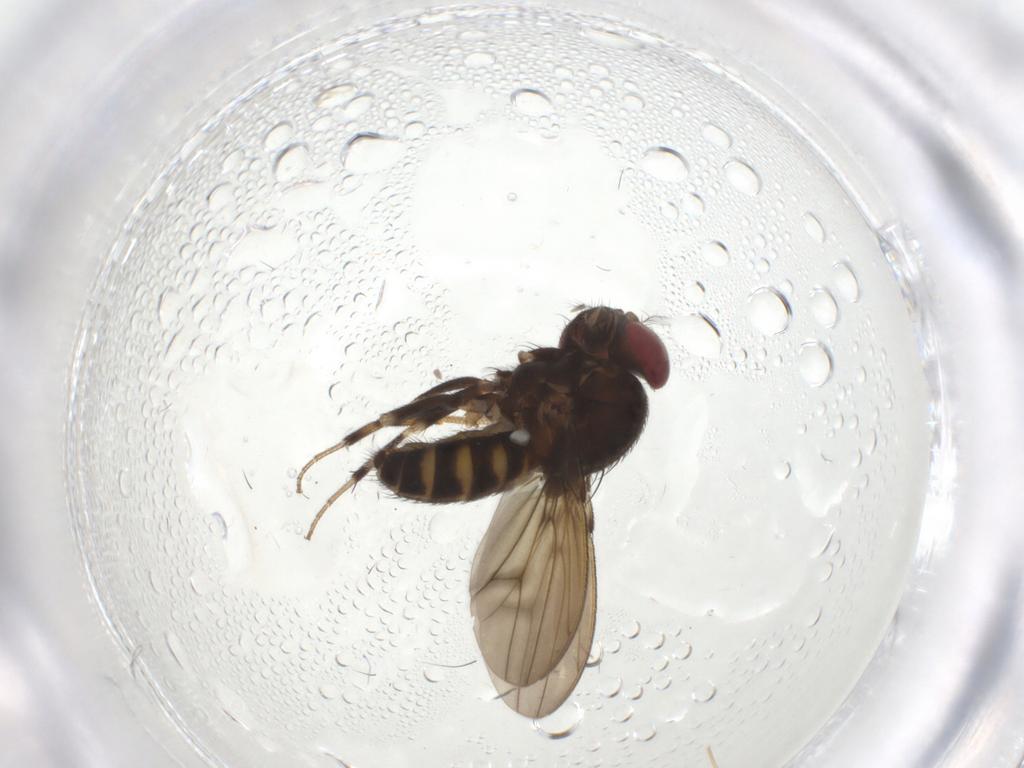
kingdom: Animalia
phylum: Arthropoda
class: Insecta
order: Diptera
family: Drosophilidae
